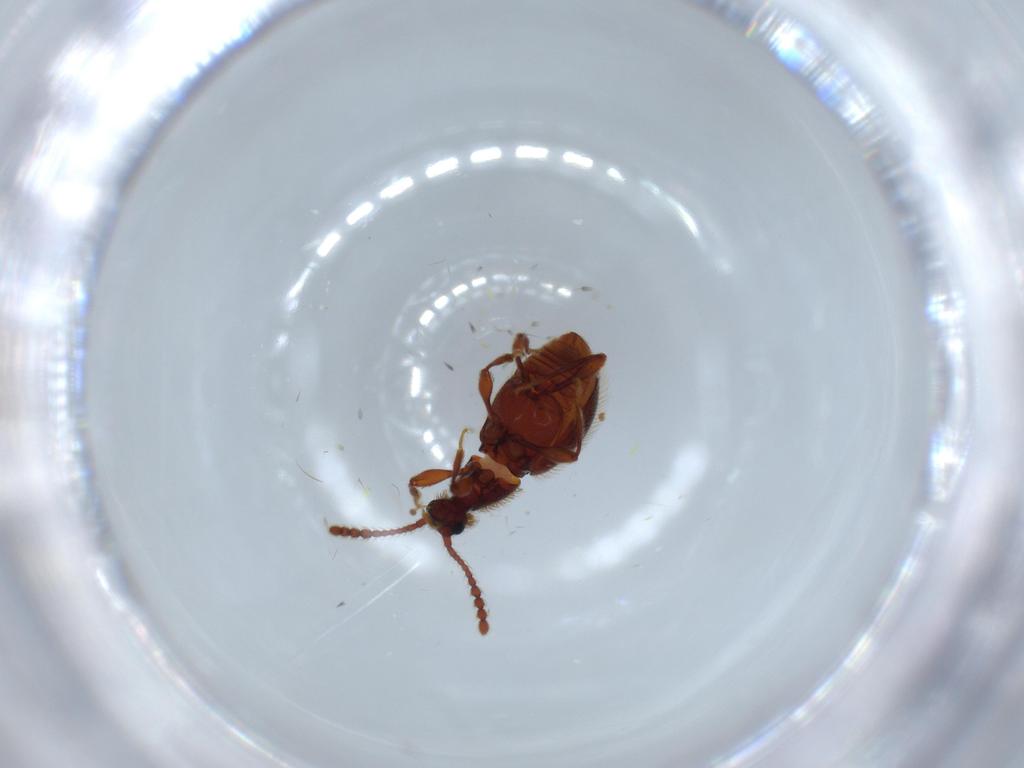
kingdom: Animalia
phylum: Arthropoda
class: Insecta
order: Coleoptera
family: Staphylinidae
